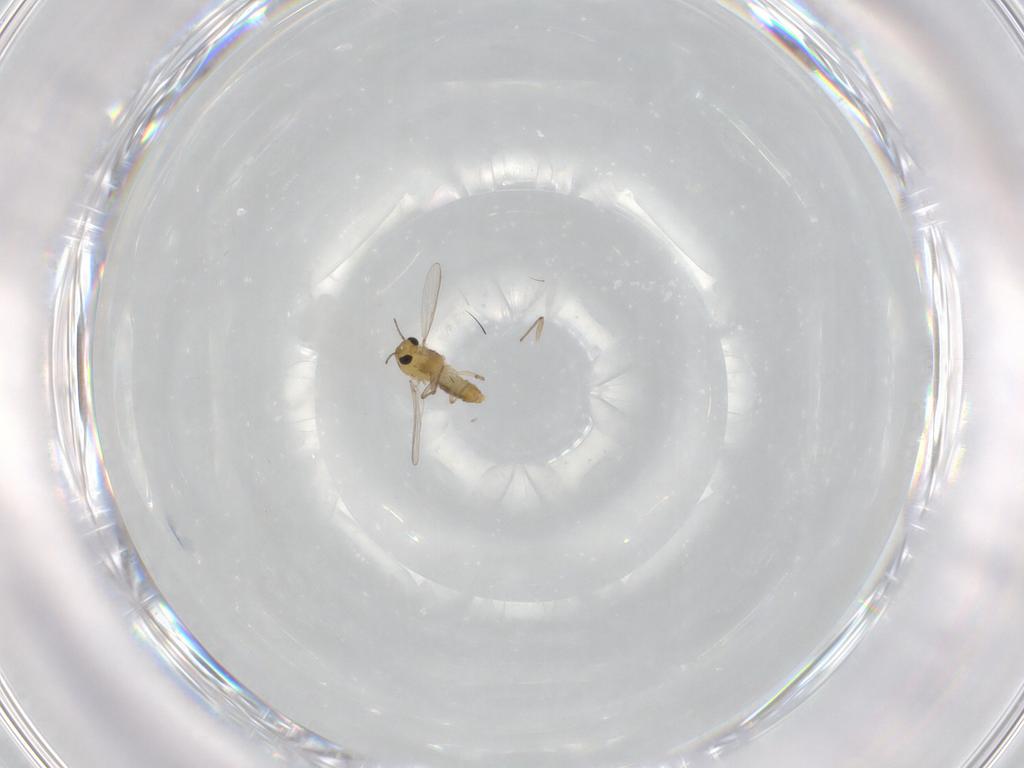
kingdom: Animalia
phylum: Arthropoda
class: Insecta
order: Diptera
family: Chironomidae
